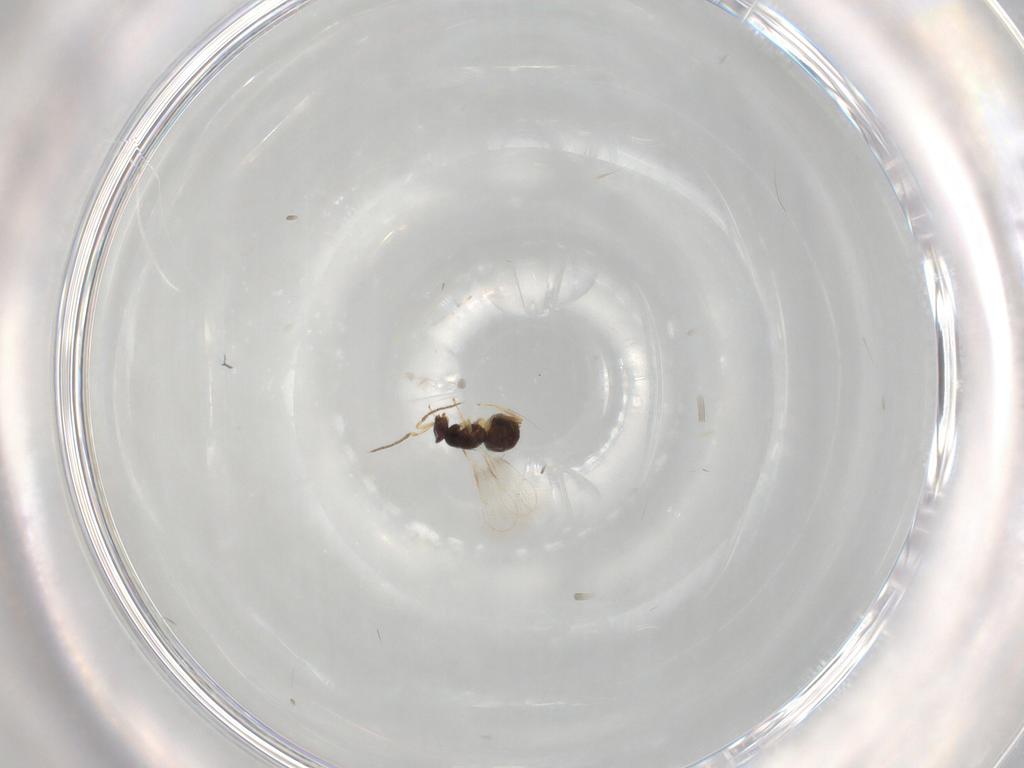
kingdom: Animalia
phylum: Arthropoda
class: Insecta
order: Hymenoptera
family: Eulophidae
